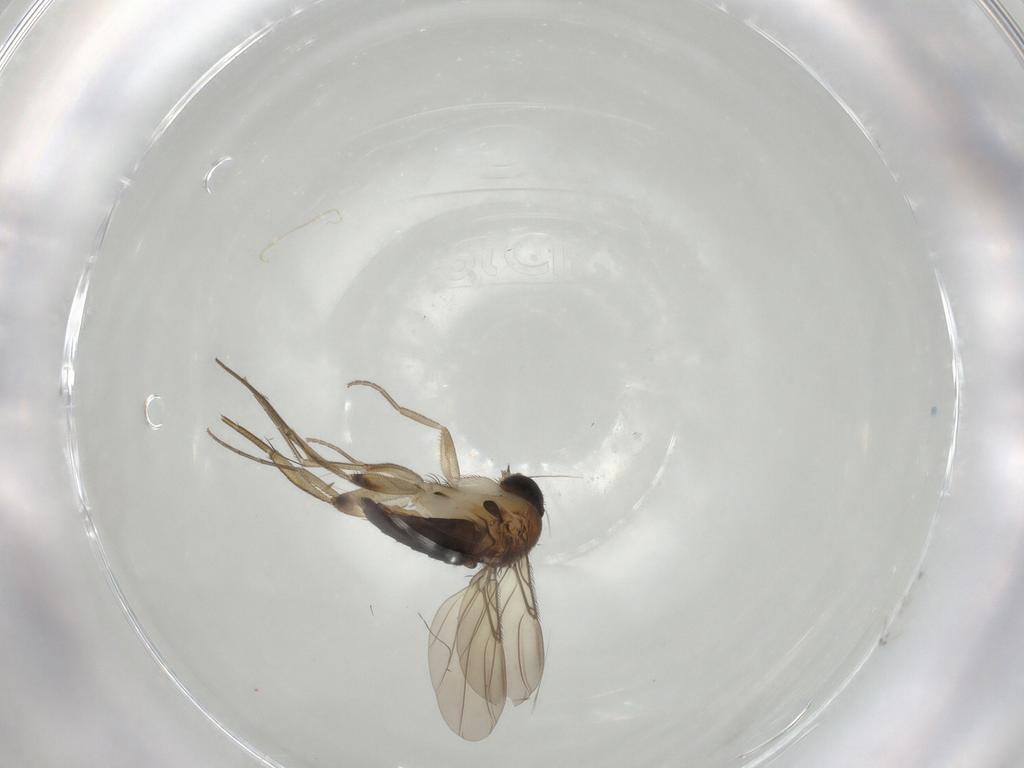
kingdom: Animalia
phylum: Arthropoda
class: Insecta
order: Diptera
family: Phoridae
